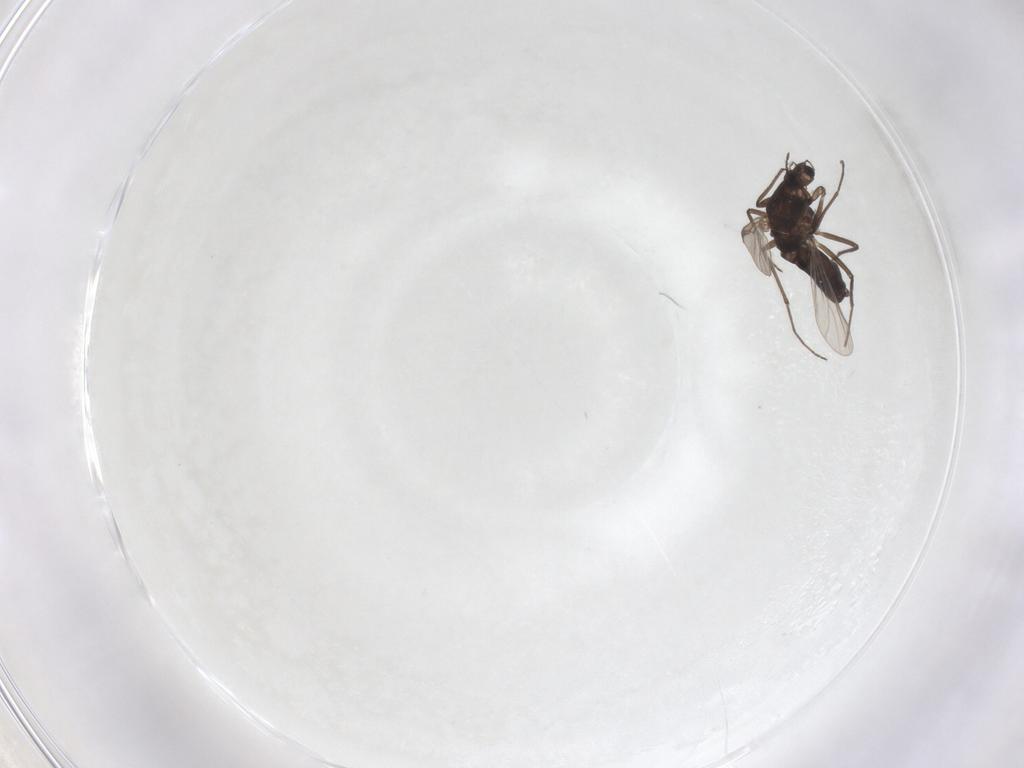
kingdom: Animalia
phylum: Arthropoda
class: Insecta
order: Diptera
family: Chironomidae
